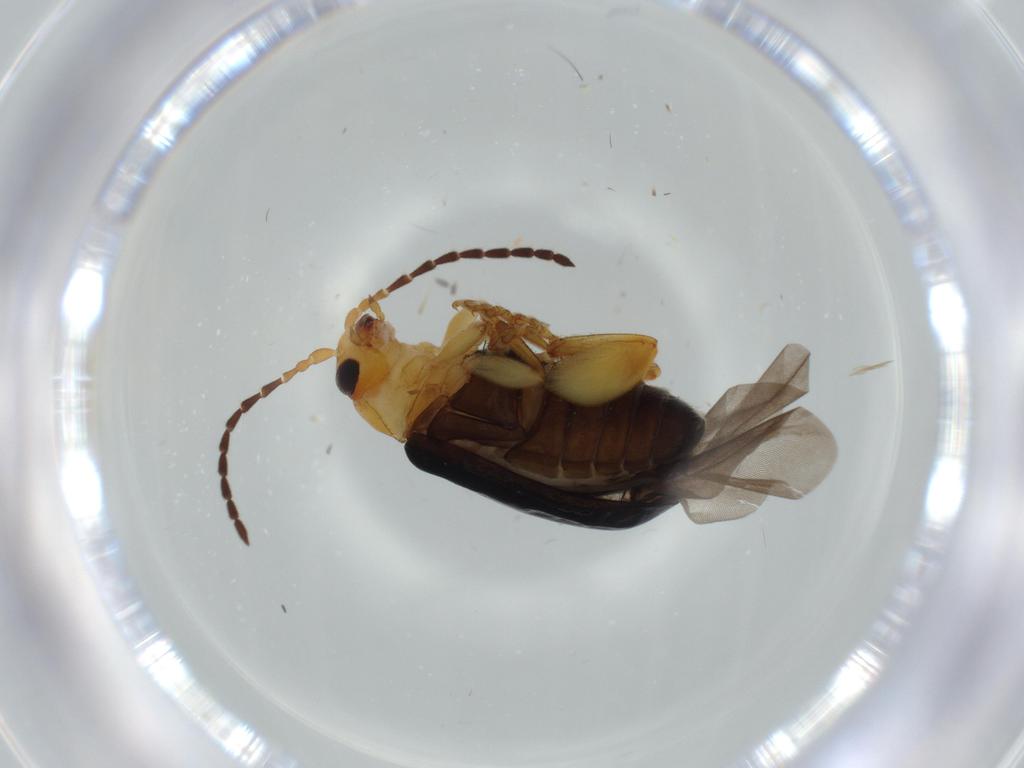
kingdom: Animalia
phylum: Arthropoda
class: Insecta
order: Coleoptera
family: Chrysomelidae
